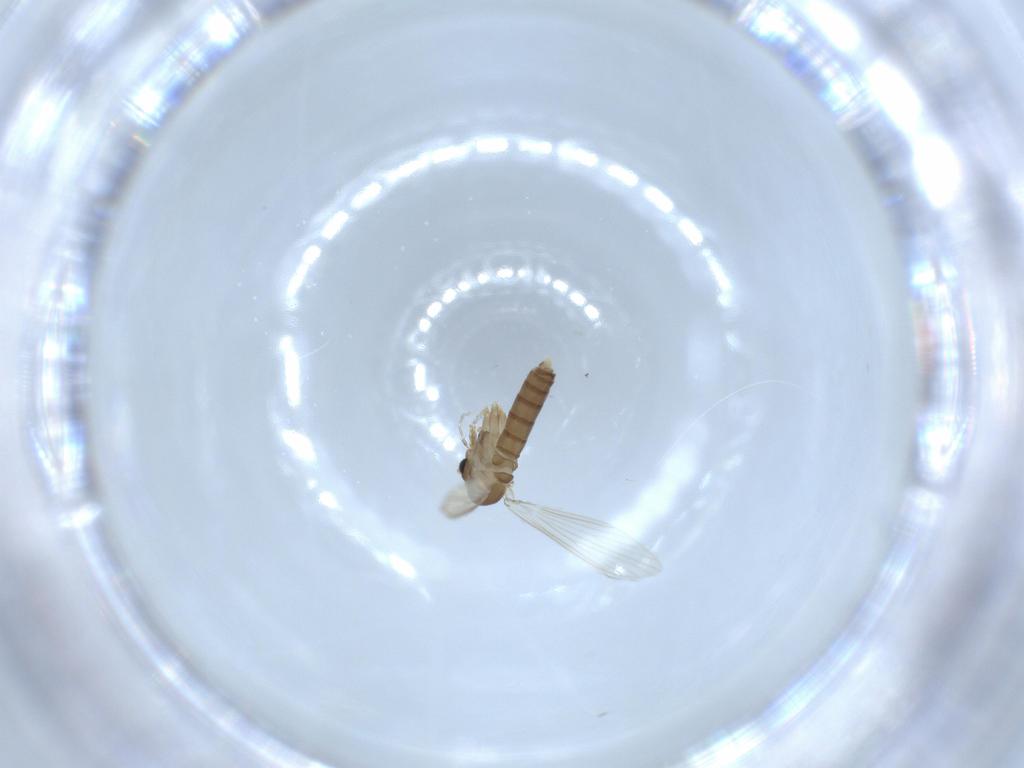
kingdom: Animalia
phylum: Arthropoda
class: Insecta
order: Diptera
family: Psychodidae
